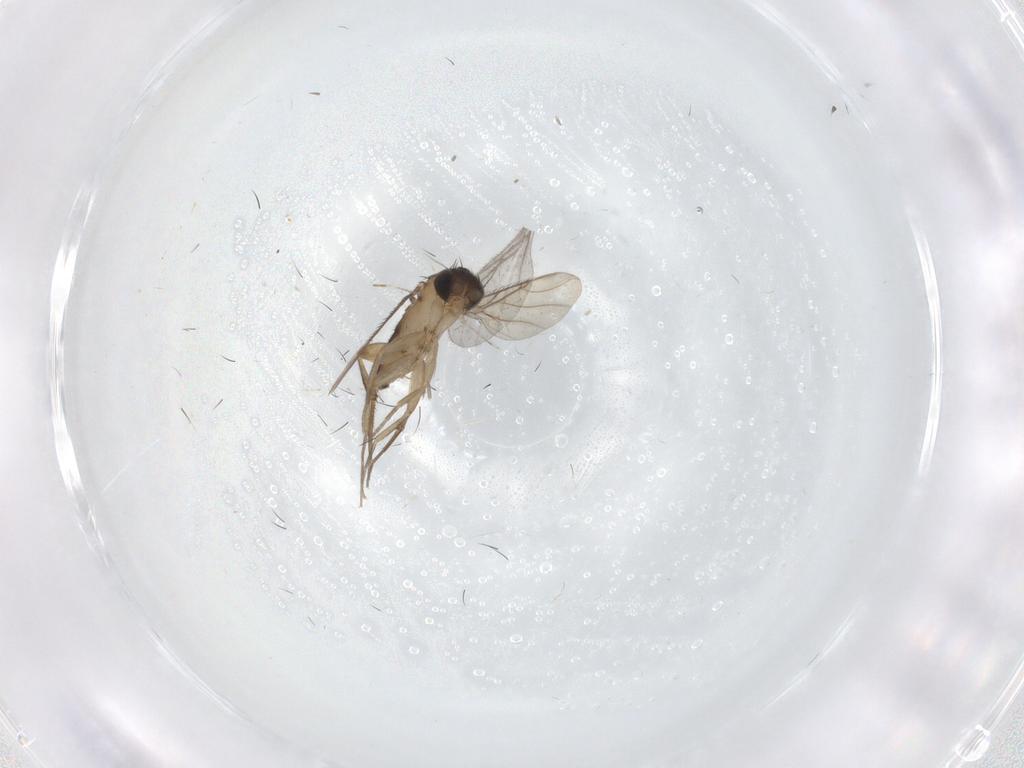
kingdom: Animalia
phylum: Arthropoda
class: Insecta
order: Diptera
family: Phoridae
